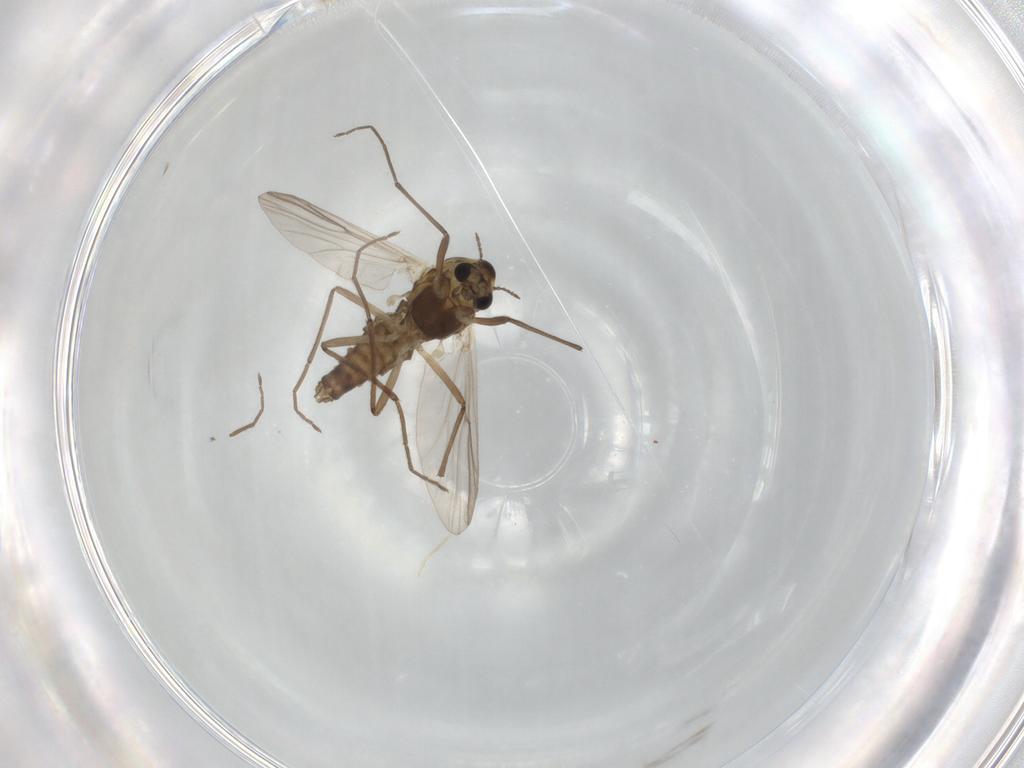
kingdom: Animalia
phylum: Arthropoda
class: Insecta
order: Diptera
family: Chironomidae
